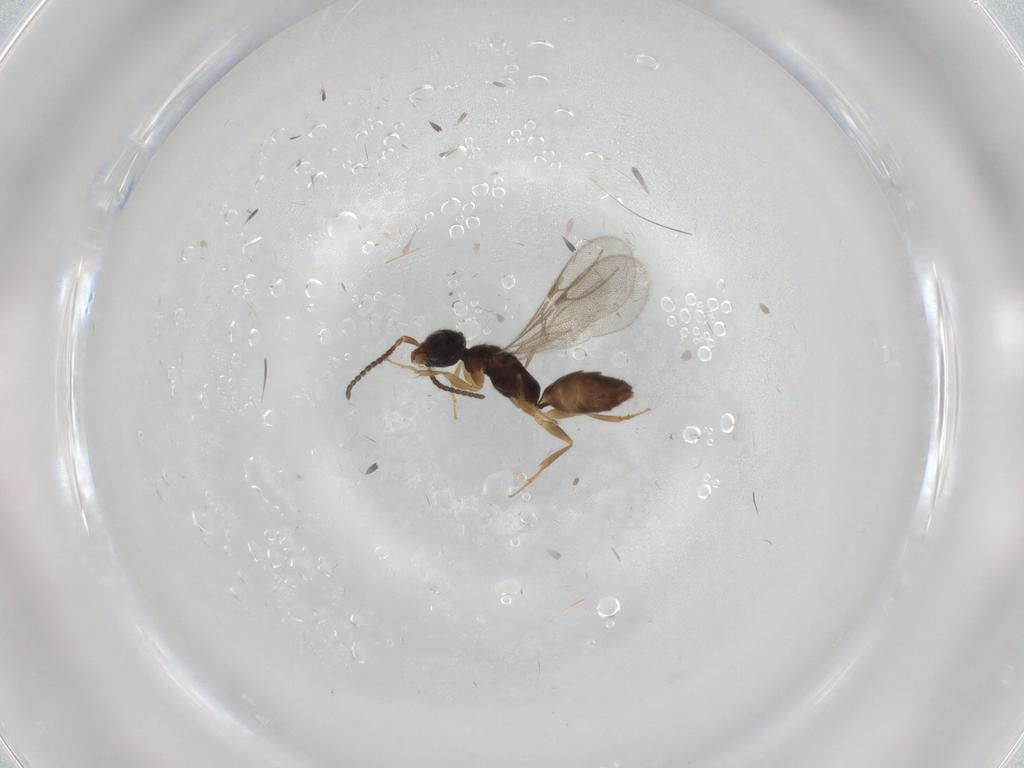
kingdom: Animalia
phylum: Arthropoda
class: Insecta
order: Hymenoptera
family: Bethylidae
